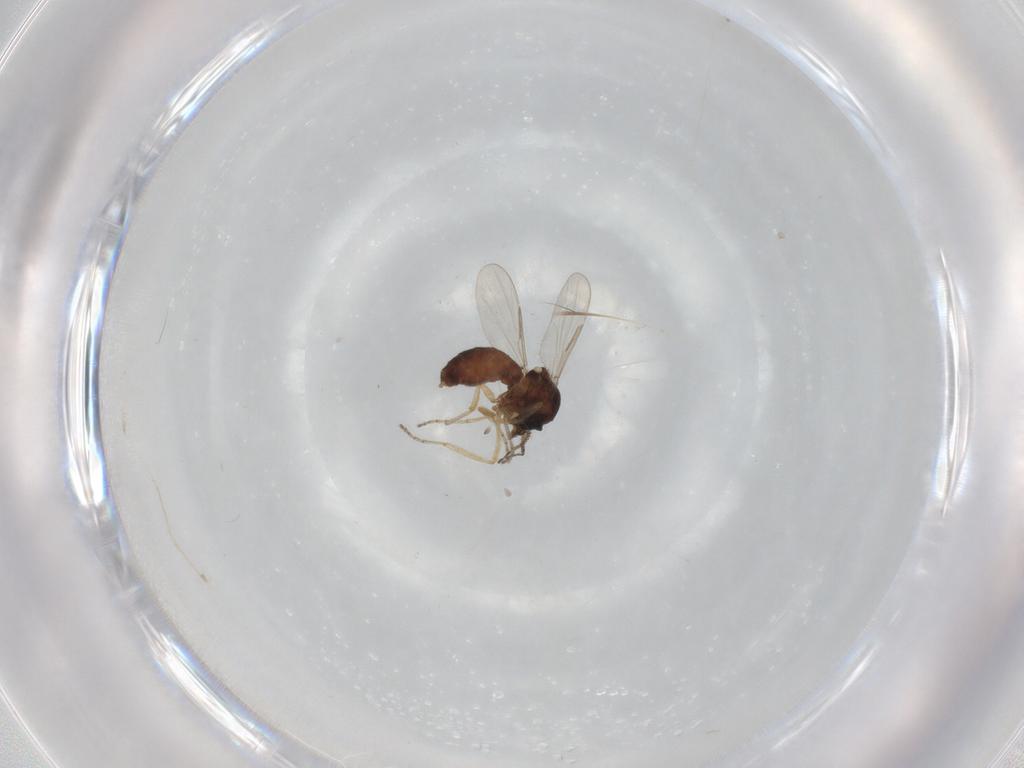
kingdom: Animalia
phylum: Arthropoda
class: Insecta
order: Diptera
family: Ceratopogonidae
